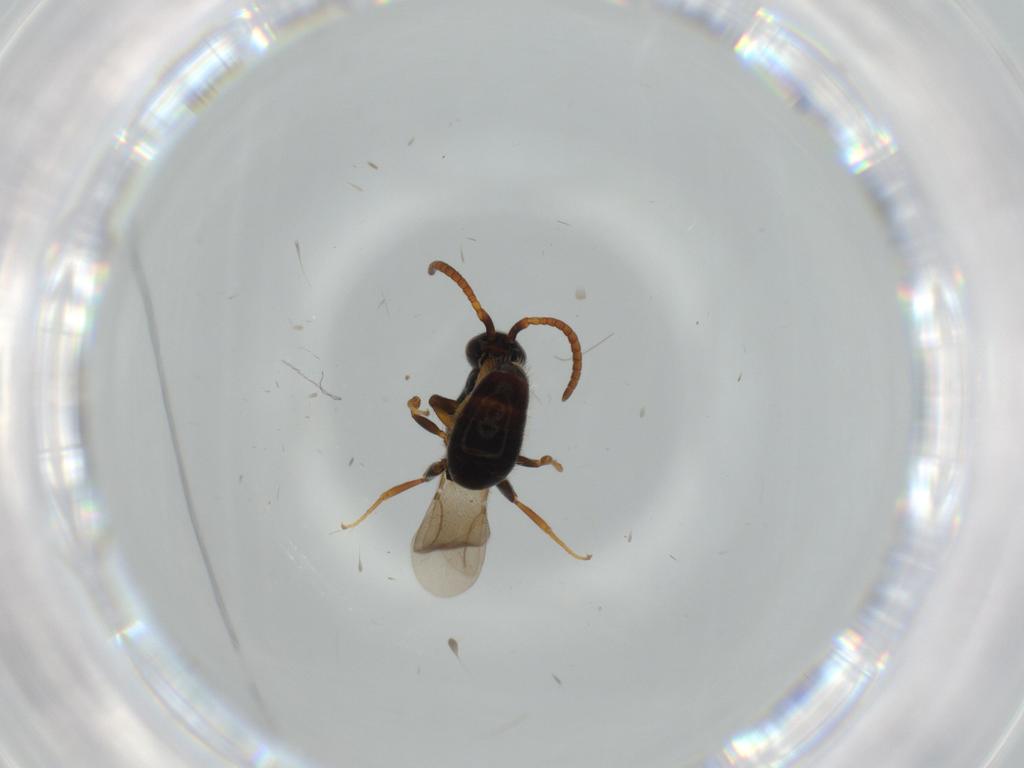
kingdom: Animalia
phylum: Arthropoda
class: Insecta
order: Hymenoptera
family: Bethylidae
